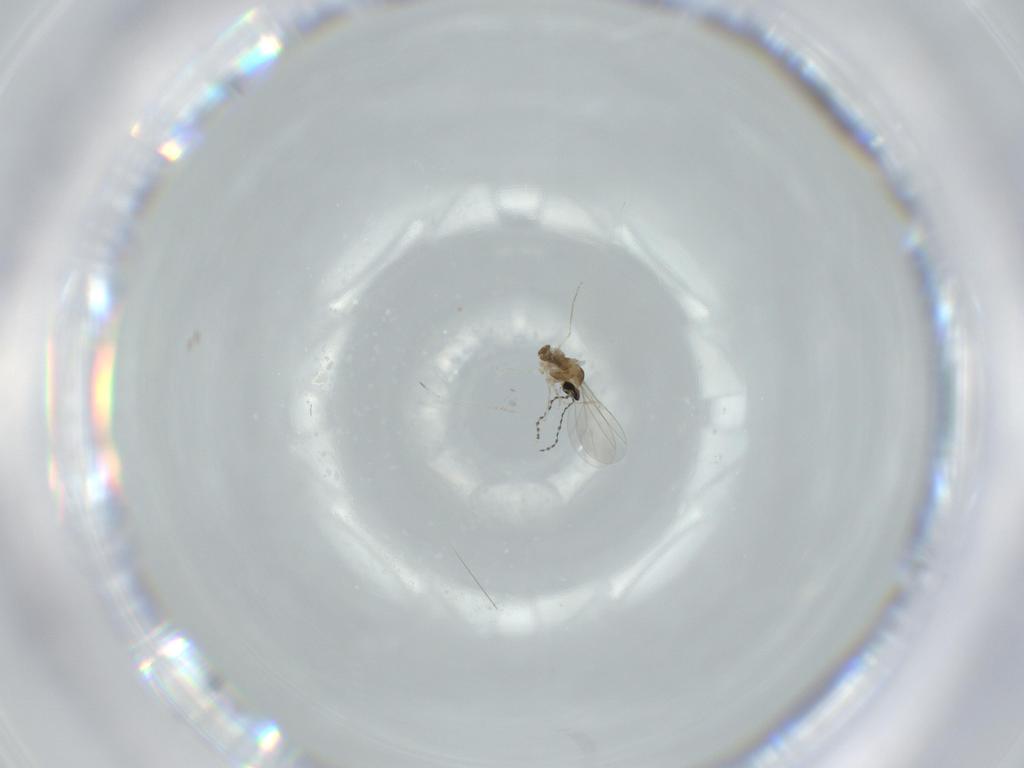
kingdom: Animalia
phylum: Arthropoda
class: Insecta
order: Diptera
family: Cecidomyiidae
